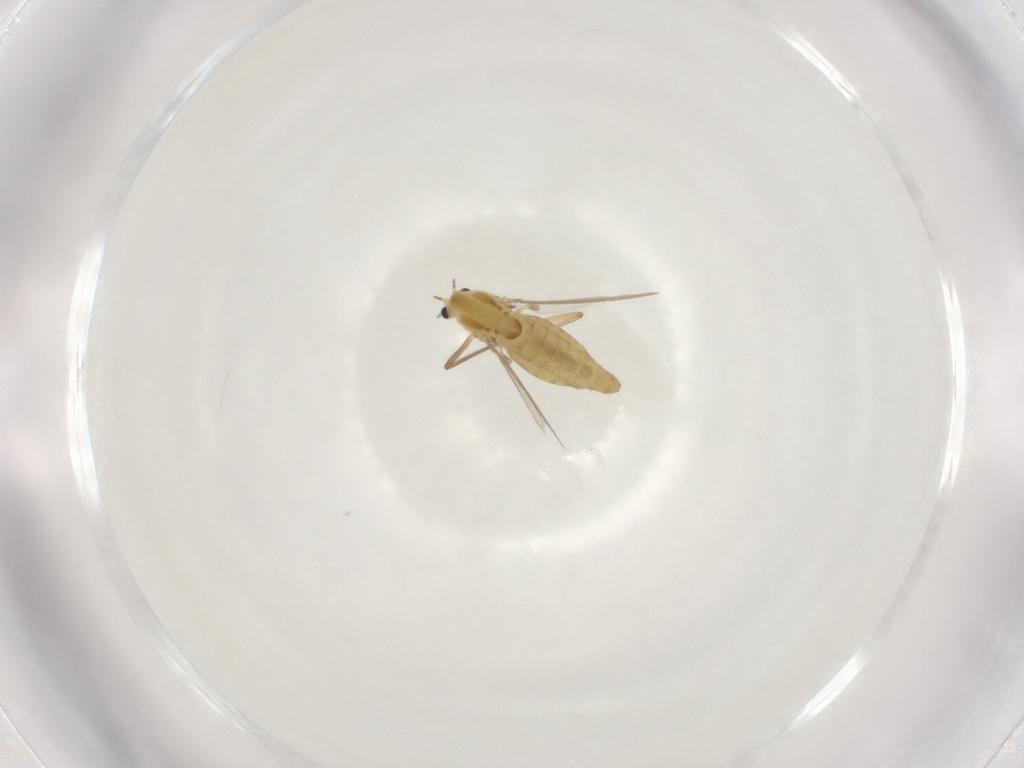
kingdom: Animalia
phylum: Arthropoda
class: Insecta
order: Diptera
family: Chironomidae
